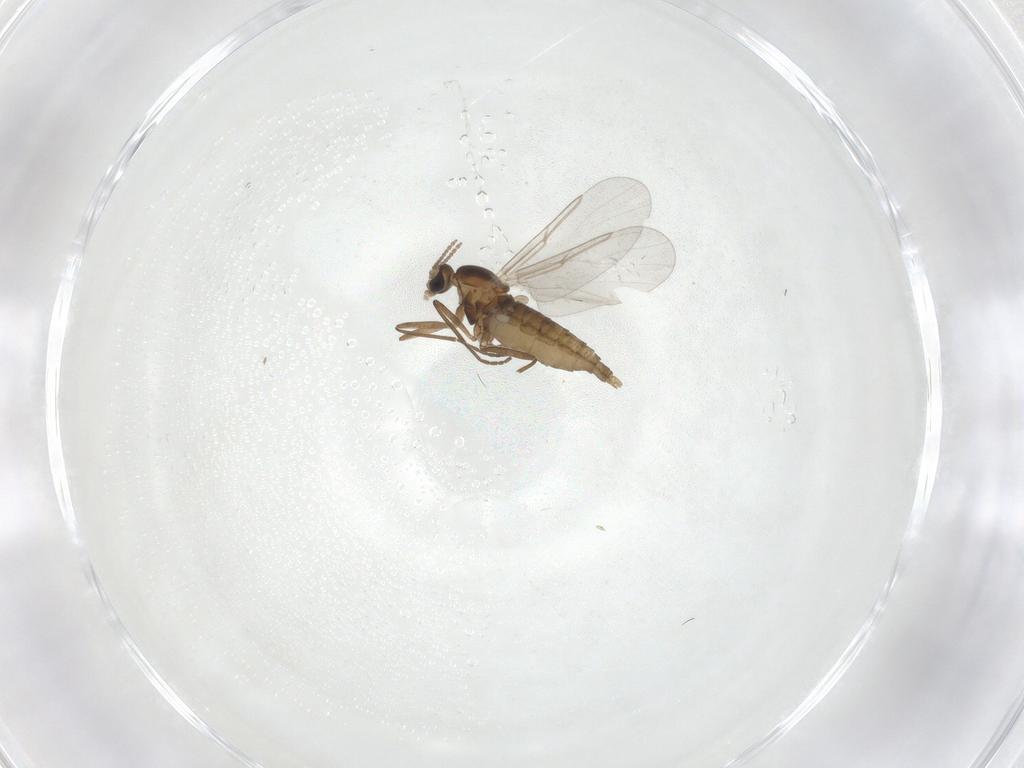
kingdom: Animalia
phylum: Arthropoda
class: Insecta
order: Diptera
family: Cecidomyiidae
